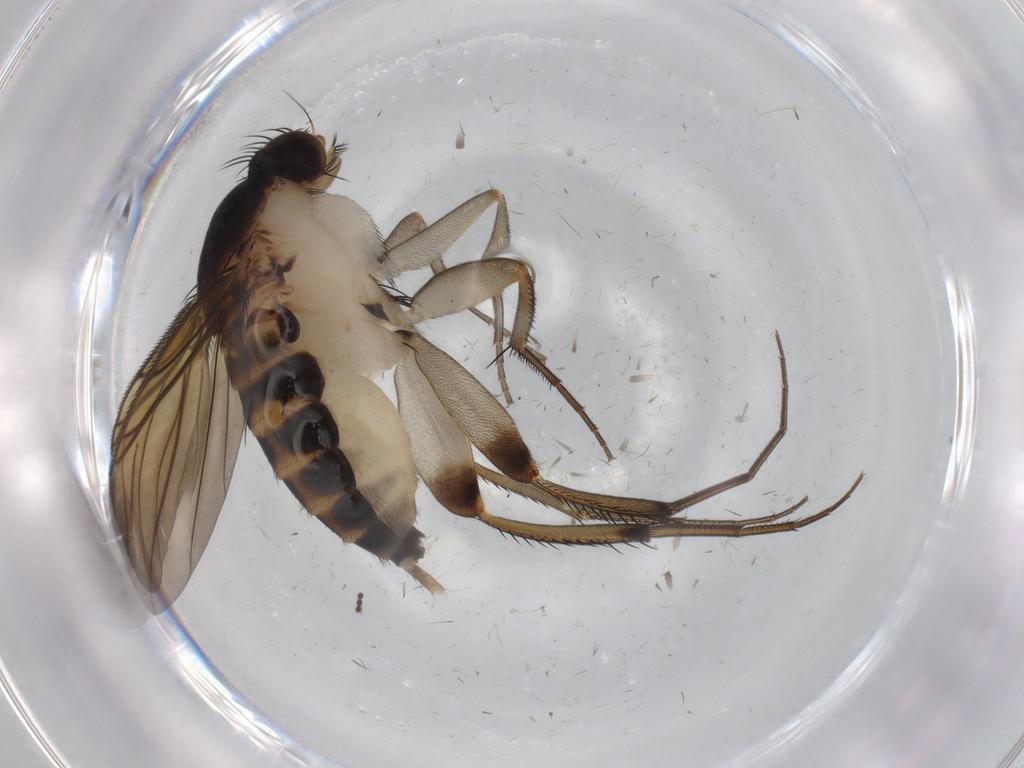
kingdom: Animalia
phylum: Arthropoda
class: Insecta
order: Diptera
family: Phoridae
